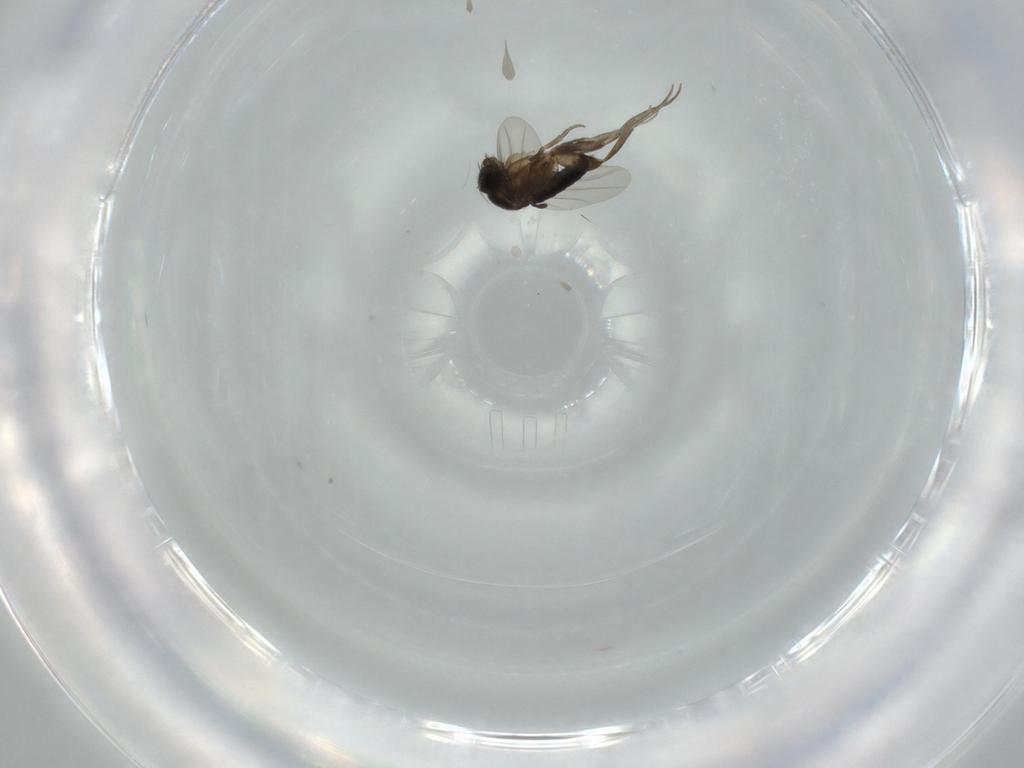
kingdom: Animalia
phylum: Arthropoda
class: Insecta
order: Diptera
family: Phoridae
